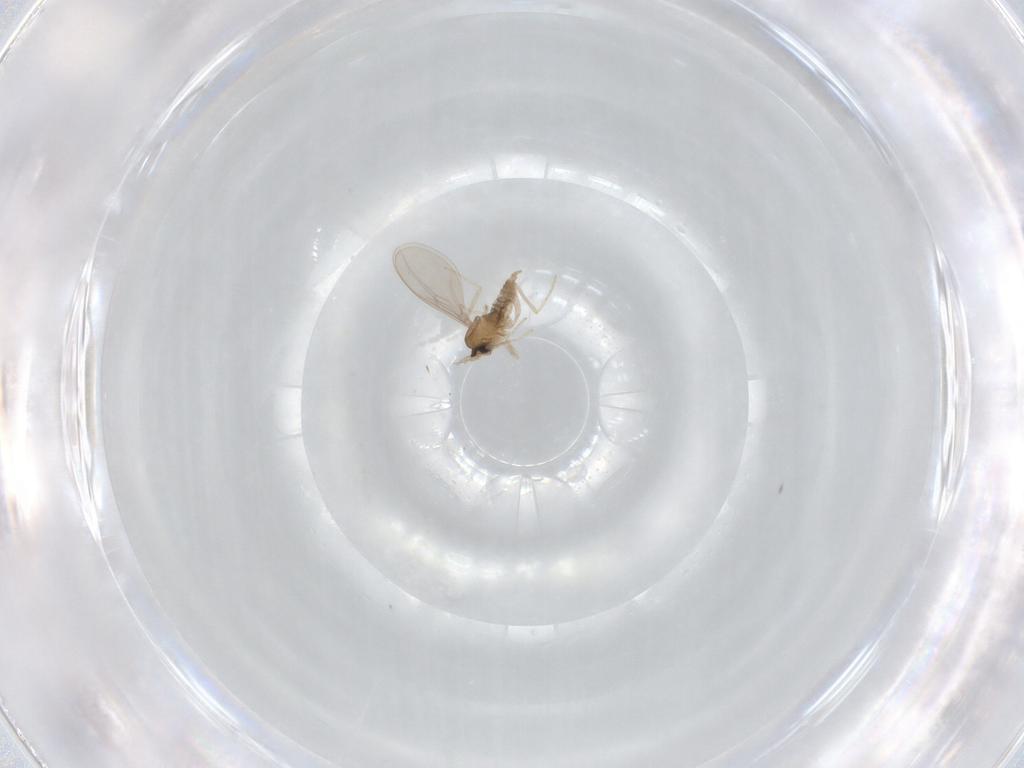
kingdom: Animalia
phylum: Arthropoda
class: Insecta
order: Diptera
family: Cecidomyiidae
